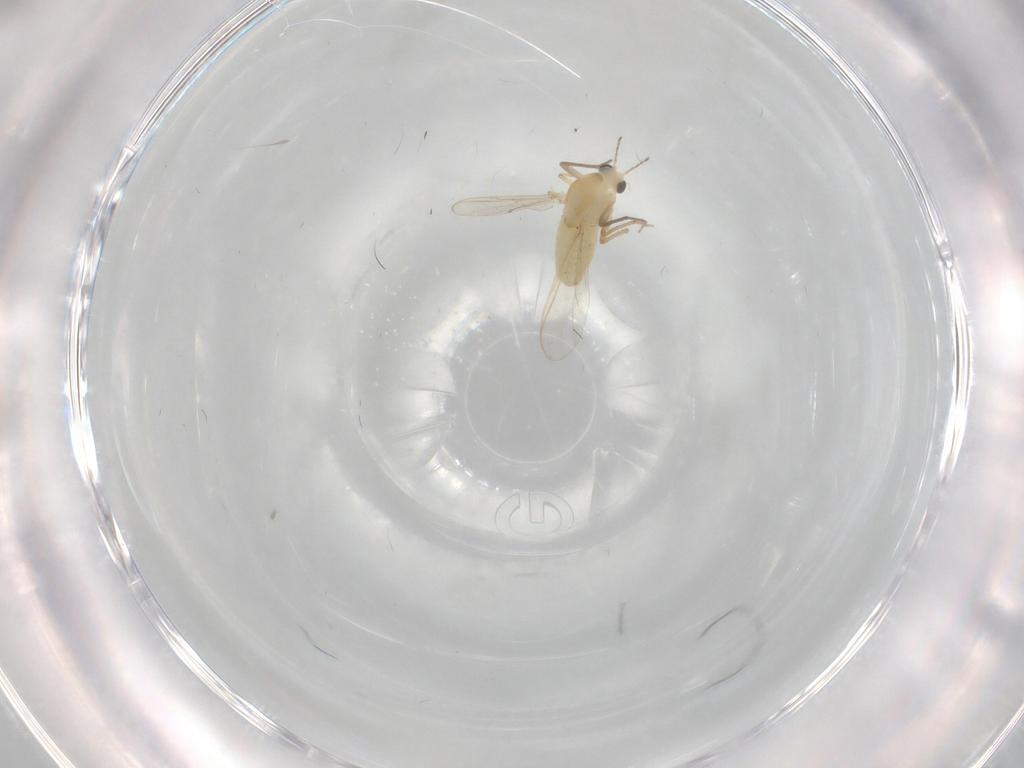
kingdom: Animalia
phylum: Arthropoda
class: Insecta
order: Diptera
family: Chironomidae
